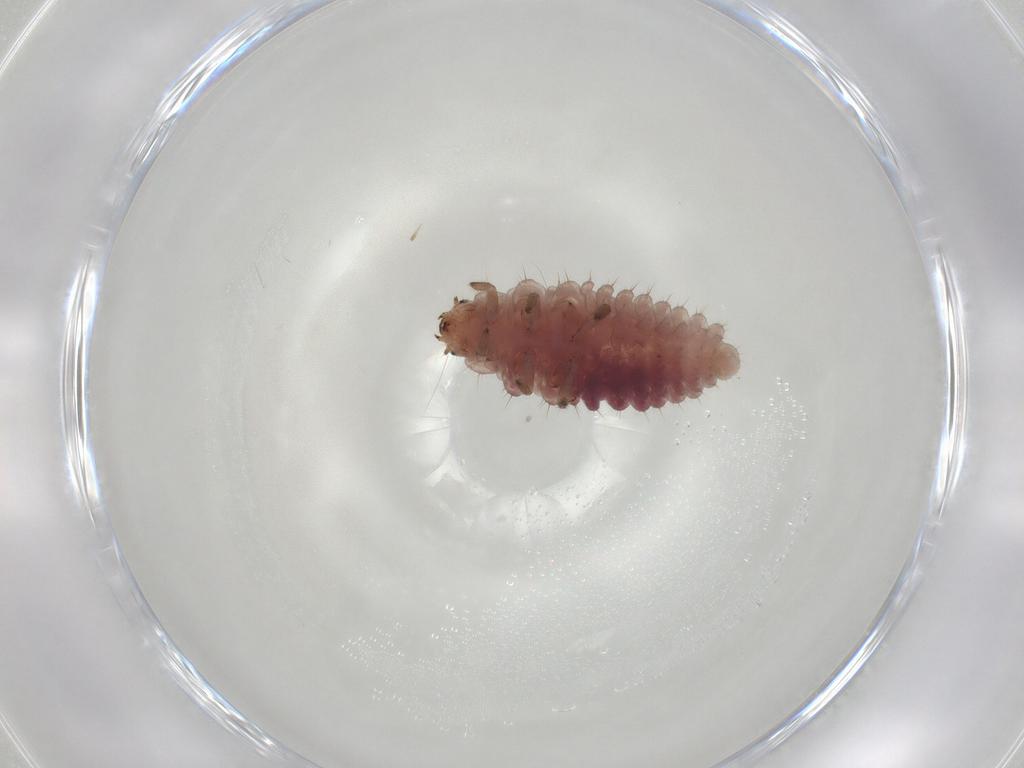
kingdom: Animalia
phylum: Arthropoda
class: Insecta
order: Coleoptera
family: Coccinellidae
